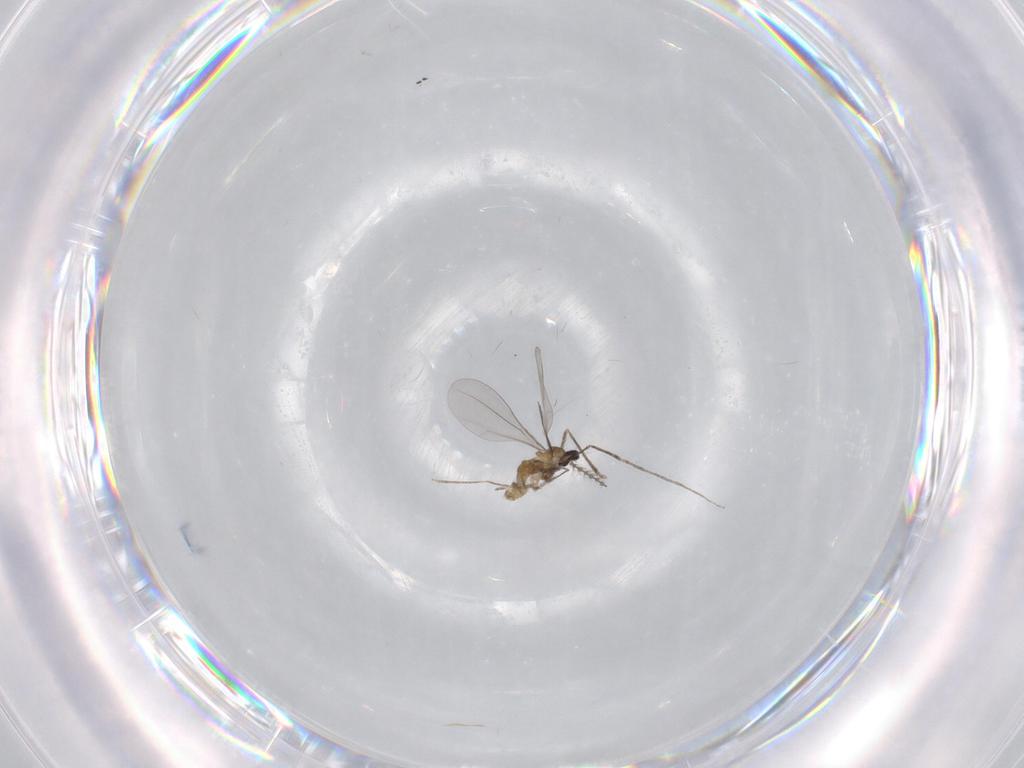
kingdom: Animalia
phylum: Arthropoda
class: Insecta
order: Diptera
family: Cecidomyiidae
